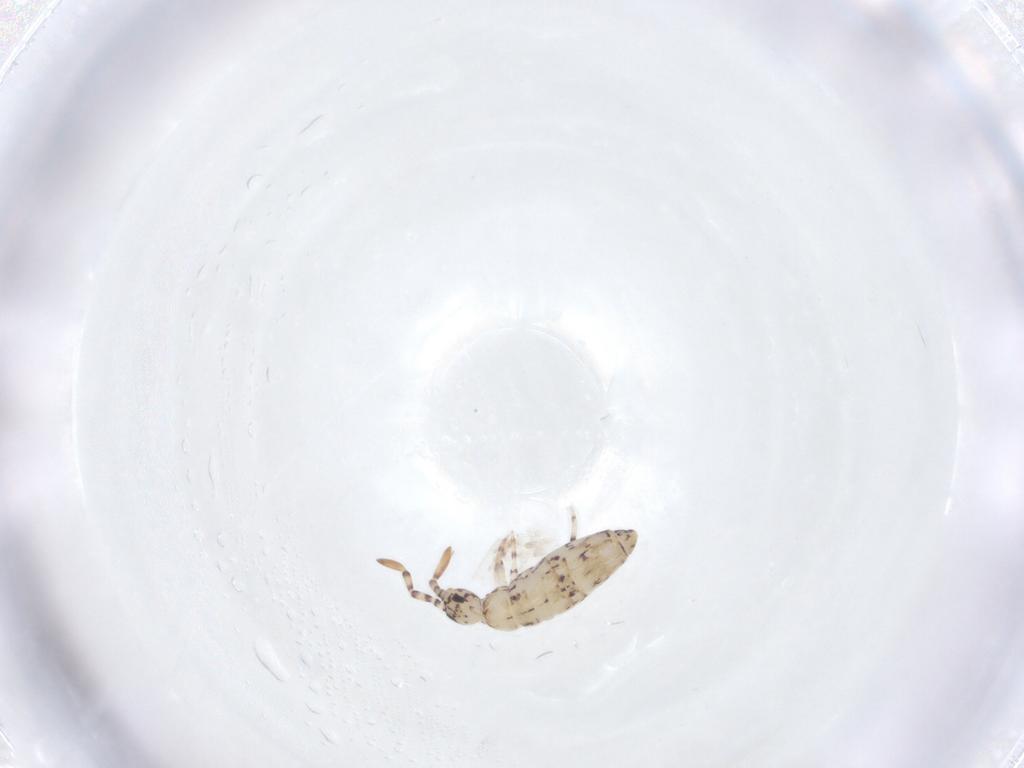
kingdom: Animalia
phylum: Arthropoda
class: Collembola
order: Entomobryomorpha
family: Entomobryidae
